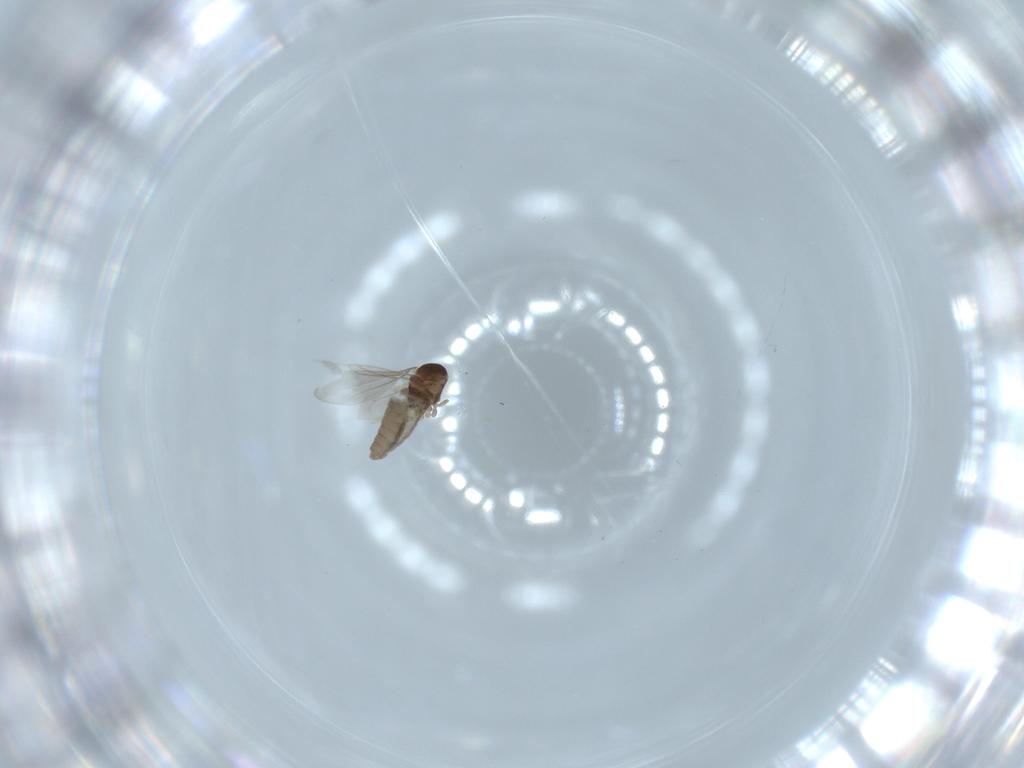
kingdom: Animalia
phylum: Arthropoda
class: Insecta
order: Diptera
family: Cecidomyiidae
